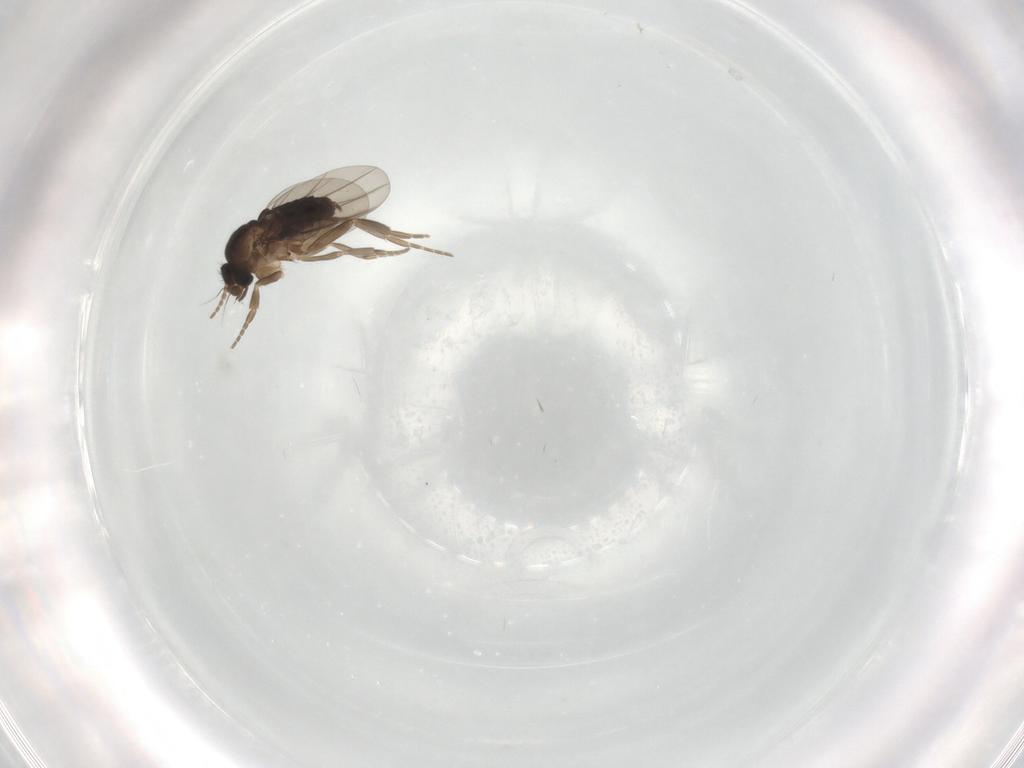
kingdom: Animalia
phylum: Arthropoda
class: Insecta
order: Diptera
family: Phoridae
